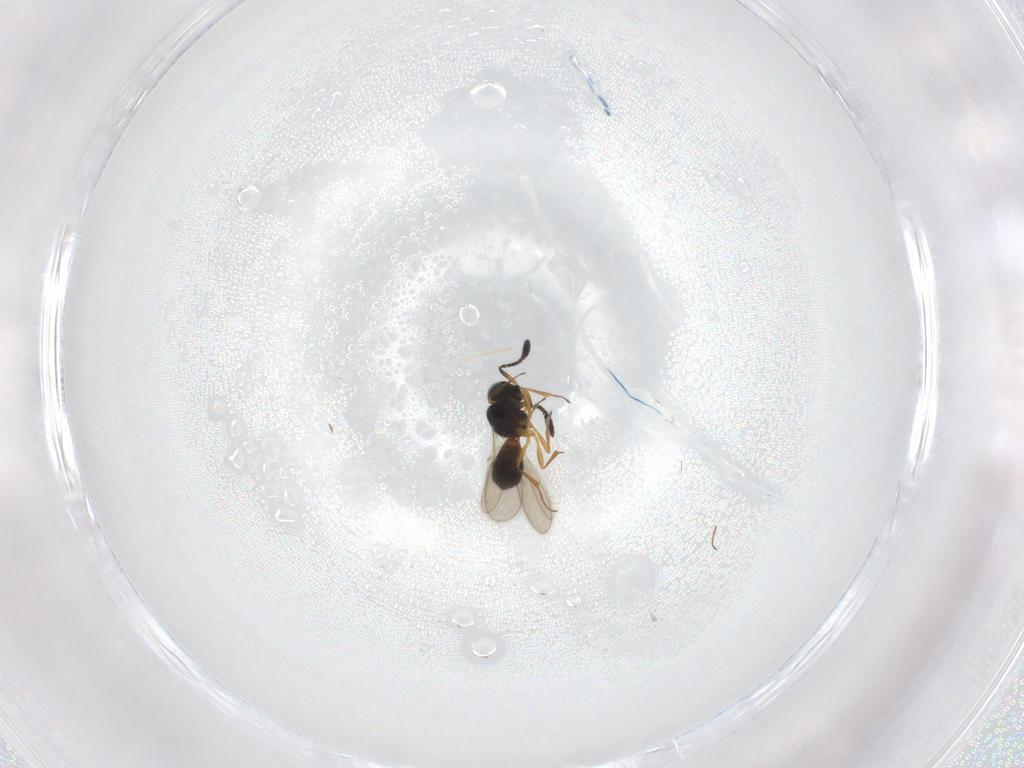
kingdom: Animalia
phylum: Arthropoda
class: Insecta
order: Hymenoptera
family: Scelionidae
